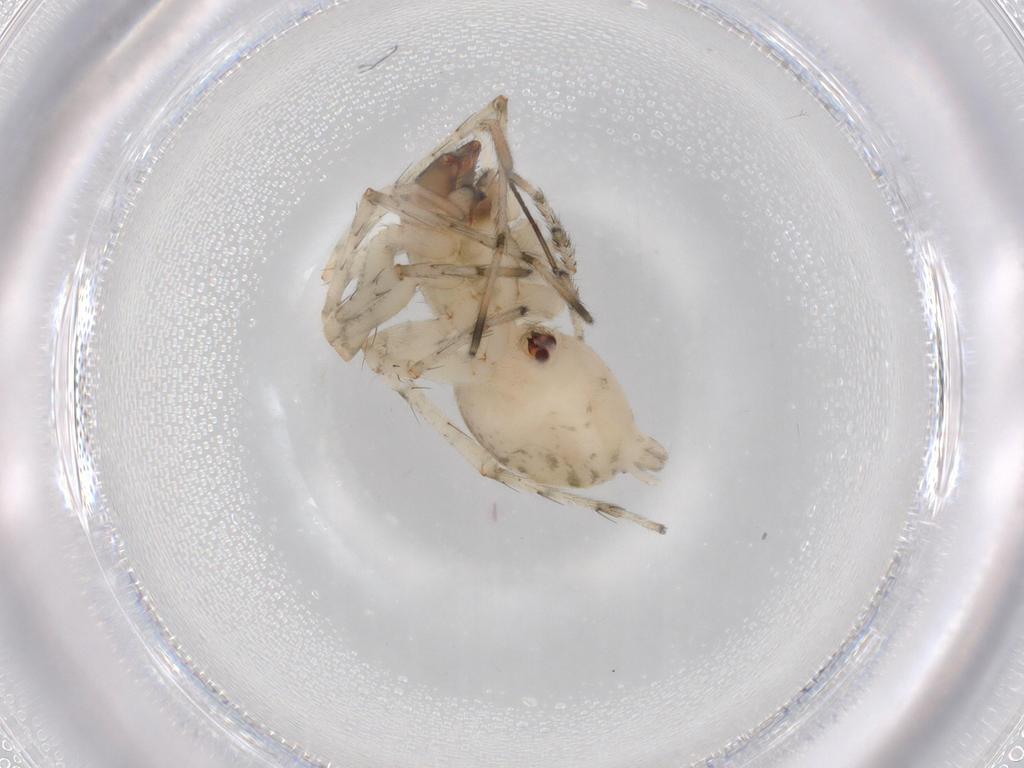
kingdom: Animalia
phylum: Arthropoda
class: Arachnida
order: Araneae
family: Anyphaenidae
